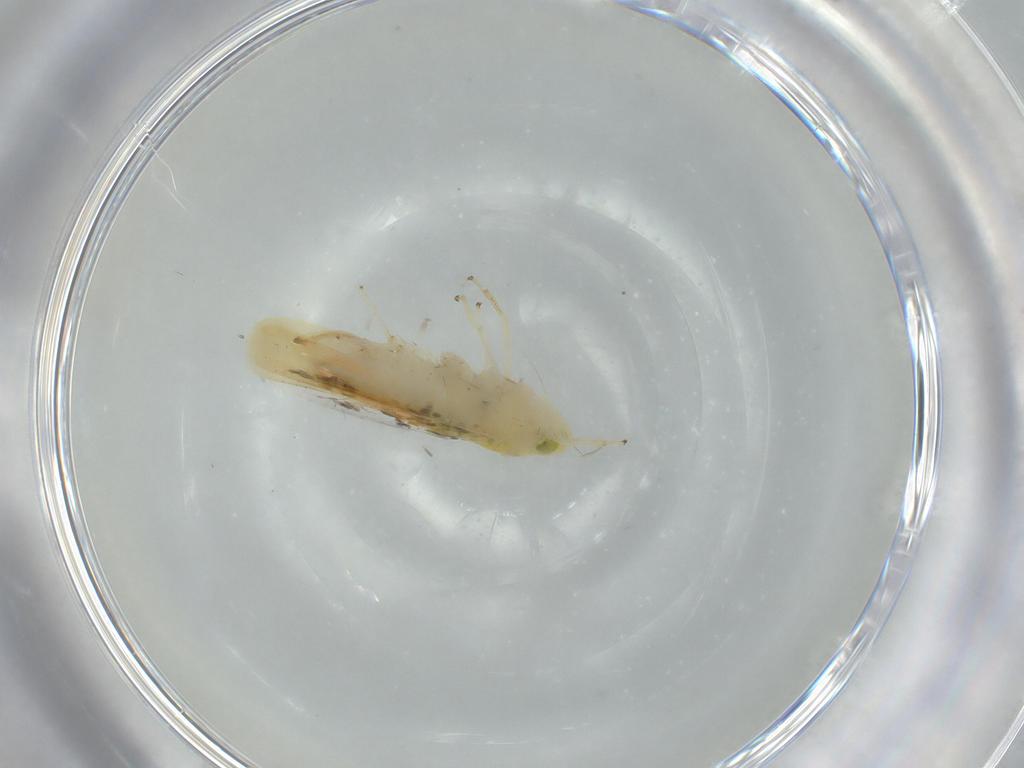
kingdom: Animalia
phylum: Arthropoda
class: Insecta
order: Hemiptera
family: Cicadellidae
